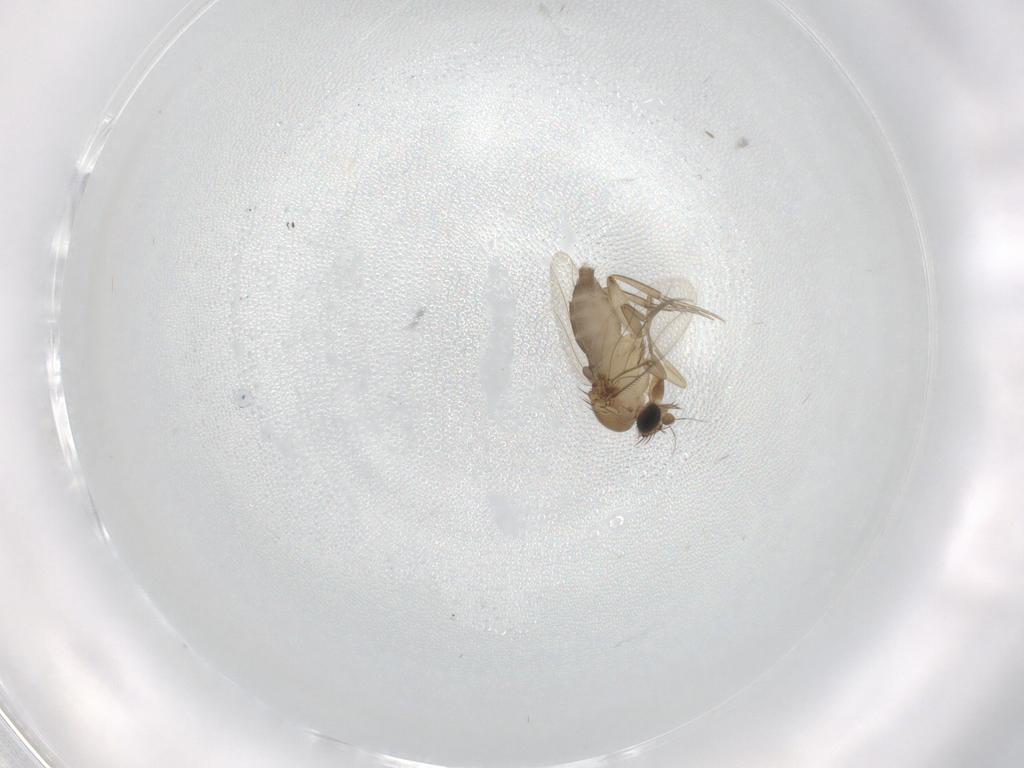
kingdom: Animalia
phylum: Arthropoda
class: Insecta
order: Diptera
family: Phoridae
